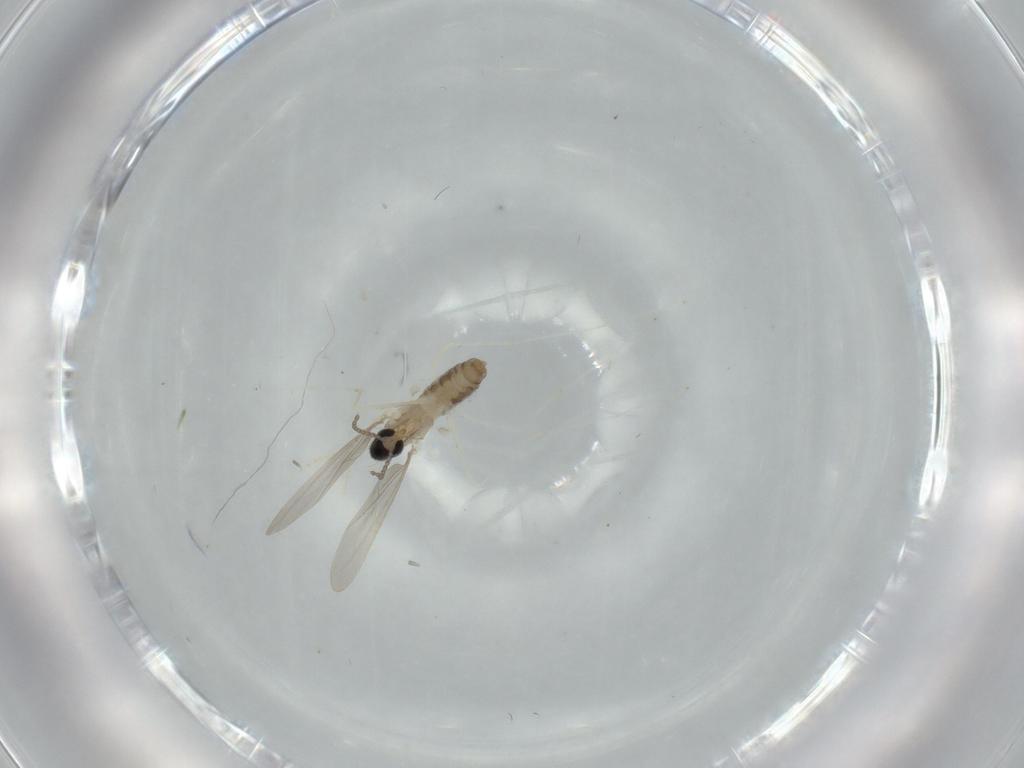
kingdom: Animalia
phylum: Arthropoda
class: Insecta
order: Diptera
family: Cecidomyiidae
